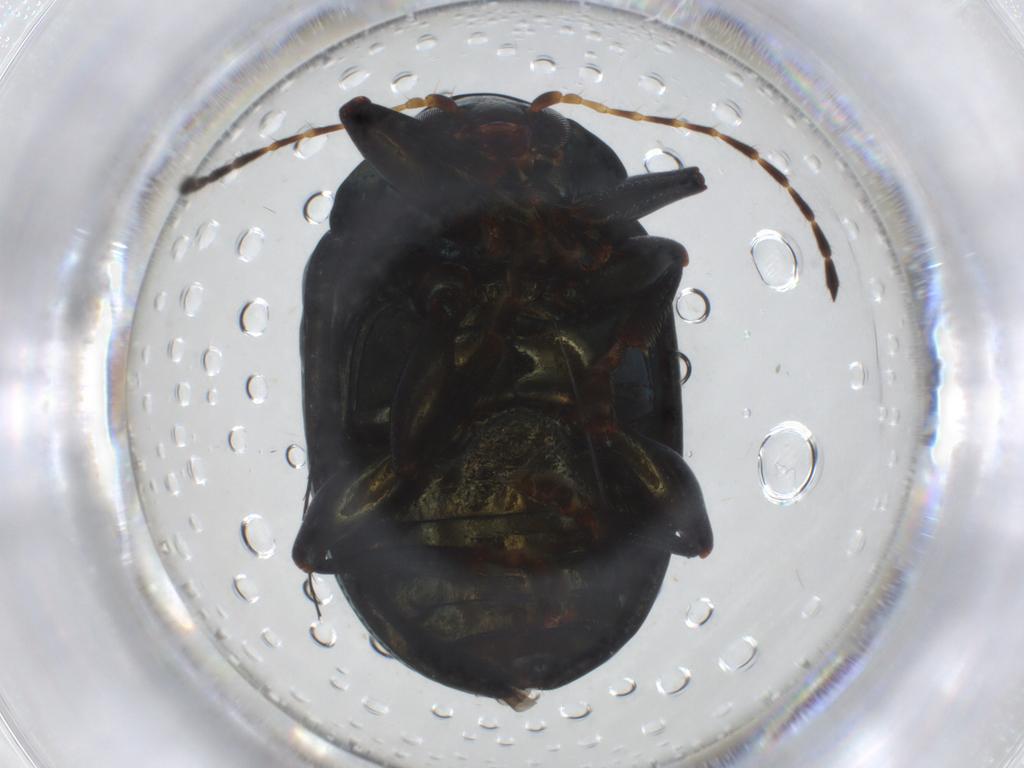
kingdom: Animalia
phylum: Arthropoda
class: Insecta
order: Coleoptera
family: Chrysomelidae
